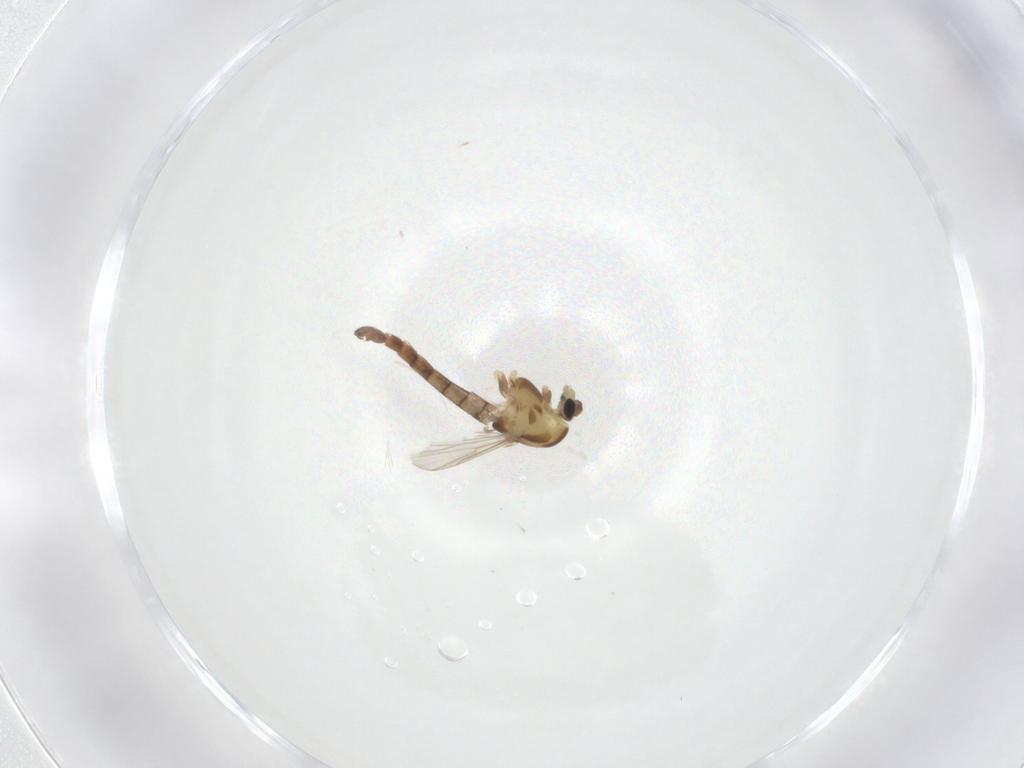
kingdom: Animalia
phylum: Arthropoda
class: Insecta
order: Diptera
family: Chironomidae
